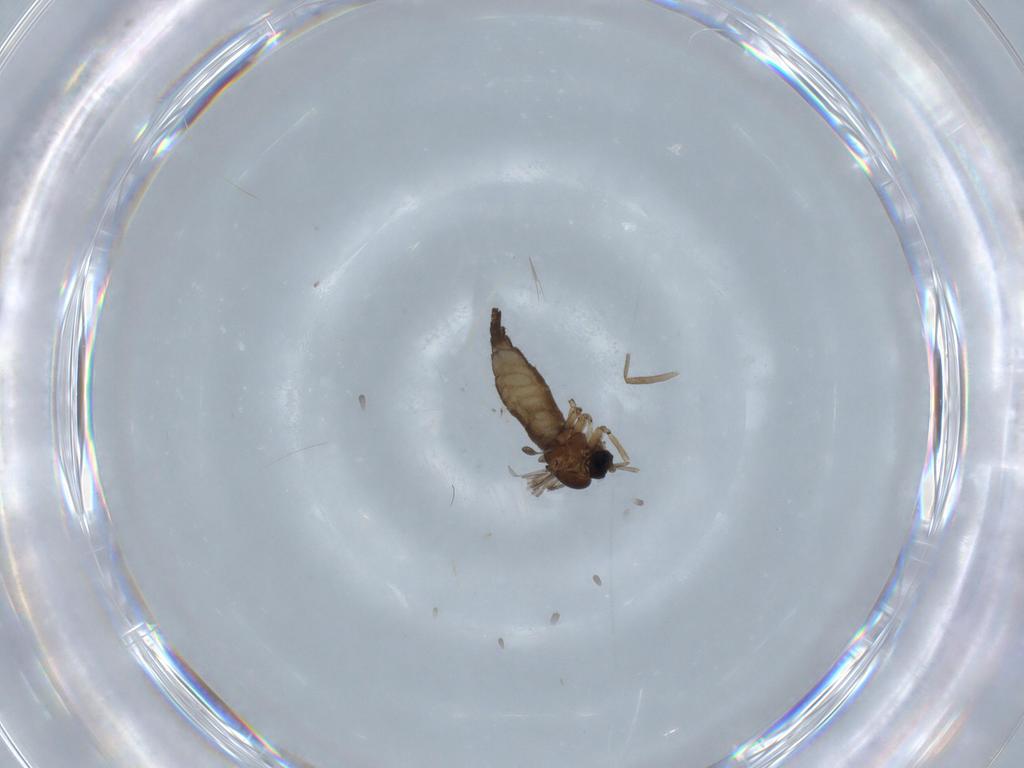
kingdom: Animalia
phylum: Arthropoda
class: Insecta
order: Diptera
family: Sciaridae
